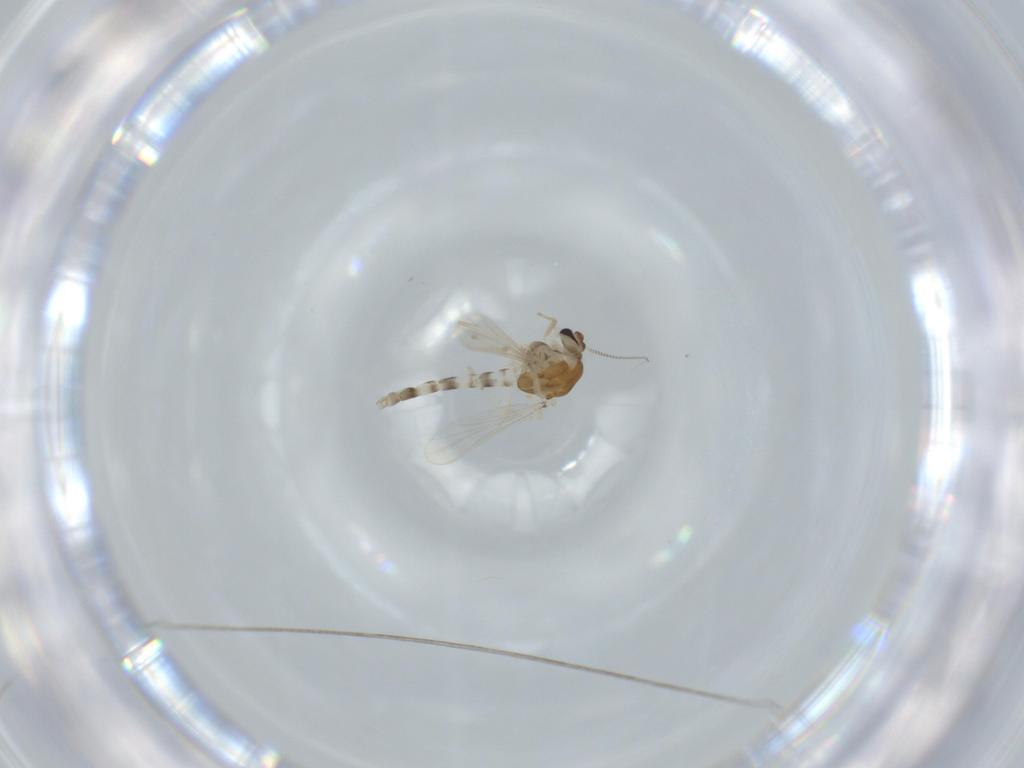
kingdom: Animalia
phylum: Arthropoda
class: Insecta
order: Diptera
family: Chironomidae
